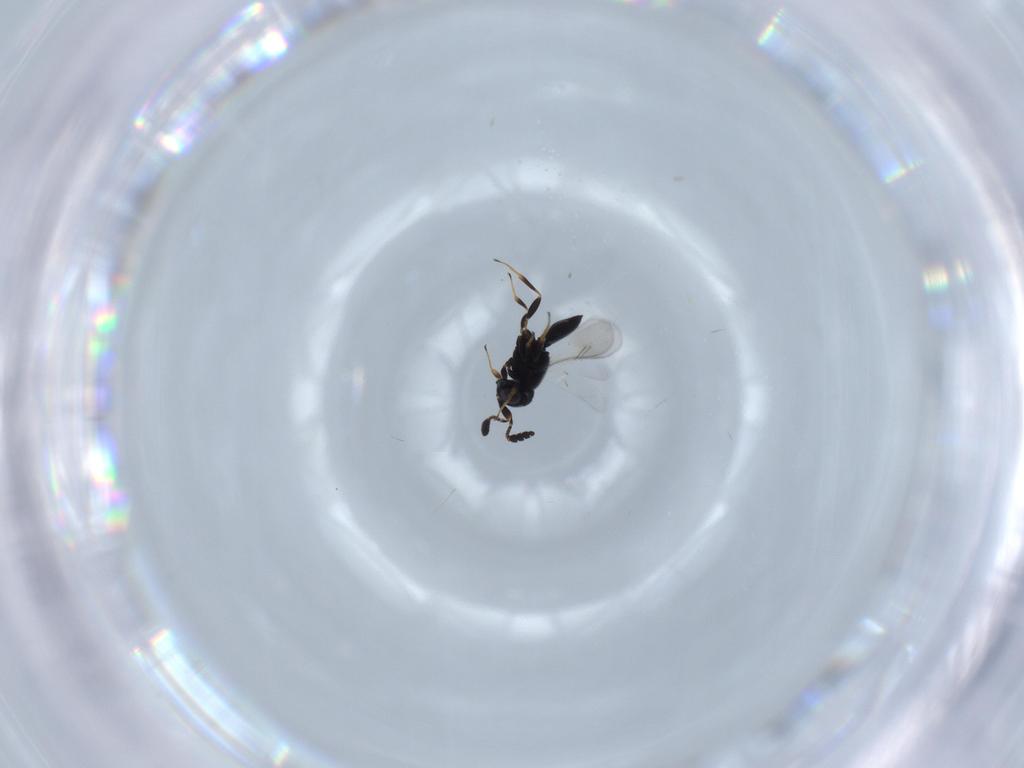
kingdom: Animalia
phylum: Arthropoda
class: Insecta
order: Hymenoptera
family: Scelionidae
